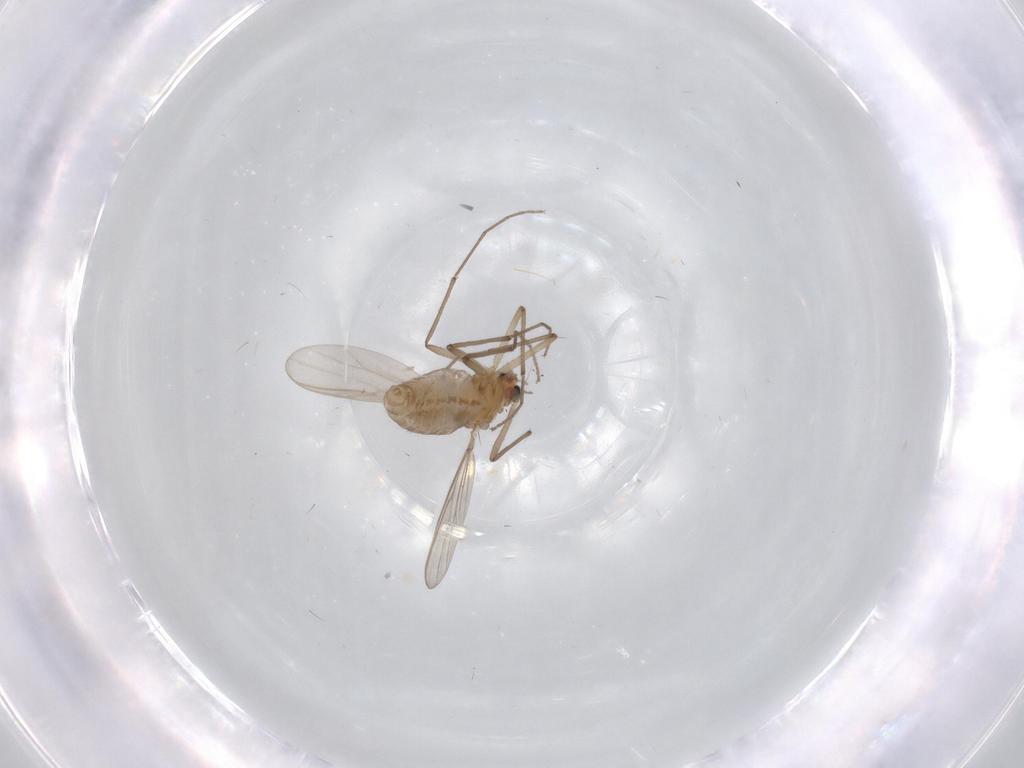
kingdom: Animalia
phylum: Arthropoda
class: Insecta
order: Diptera
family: Chironomidae
